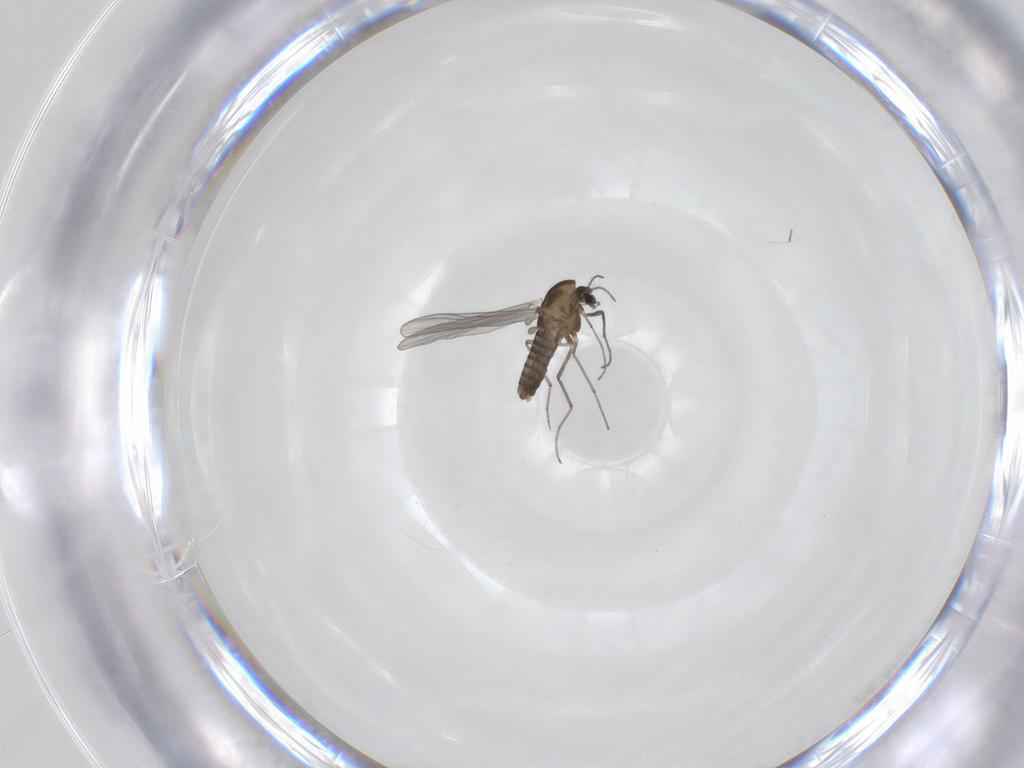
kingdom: Animalia
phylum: Arthropoda
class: Insecta
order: Diptera
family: Chironomidae
